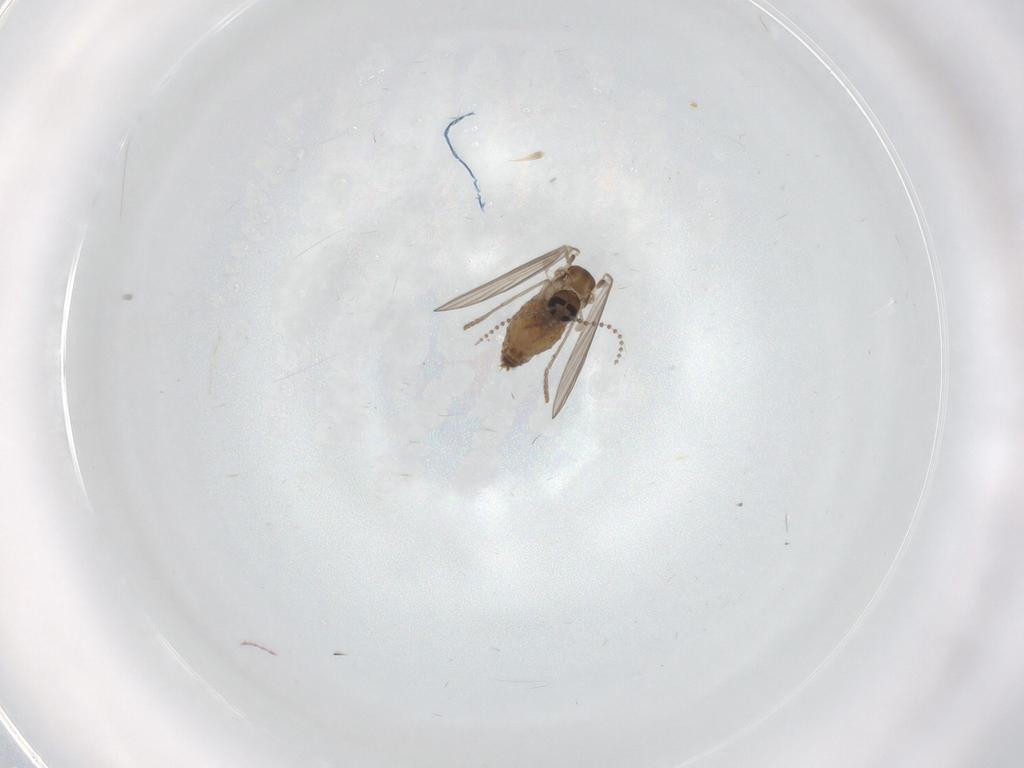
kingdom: Animalia
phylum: Arthropoda
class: Insecta
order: Diptera
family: Psychodidae
